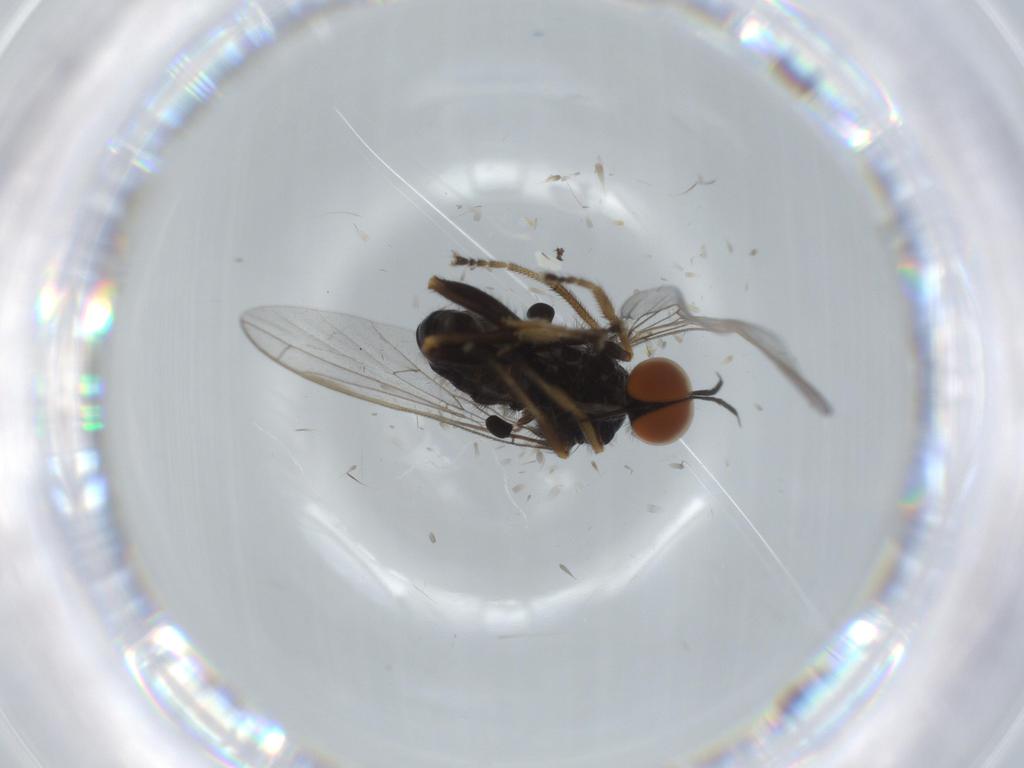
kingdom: Animalia
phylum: Arthropoda
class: Insecta
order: Diptera
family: Empididae
